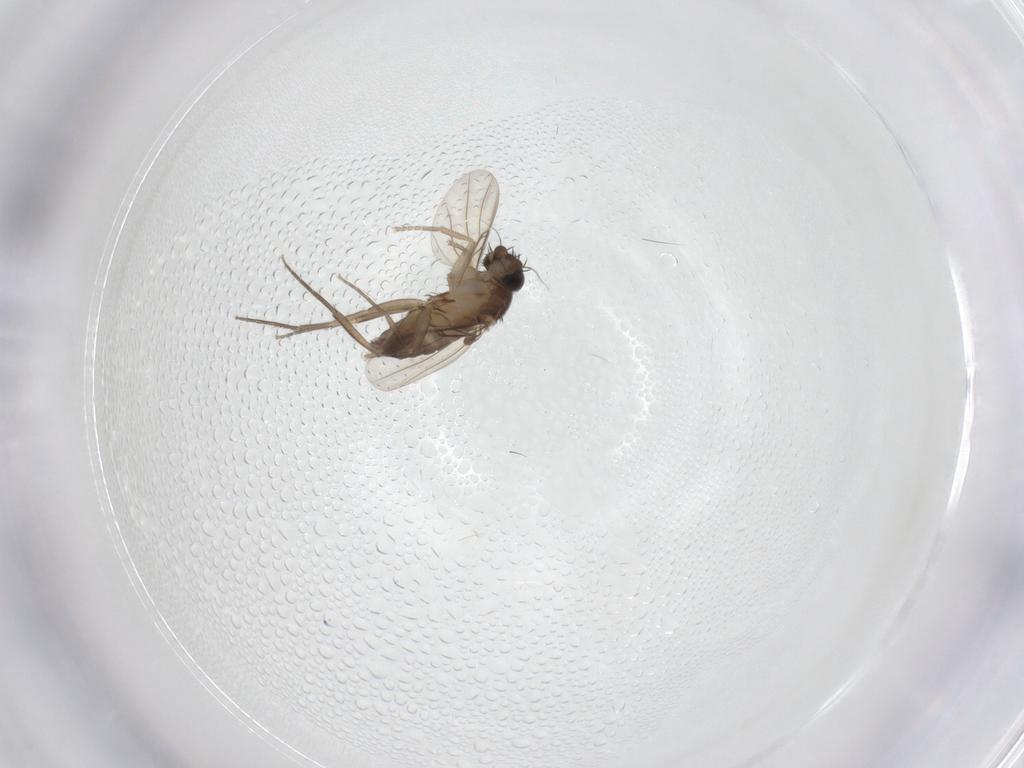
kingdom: Animalia
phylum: Arthropoda
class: Insecta
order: Diptera
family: Phoridae
